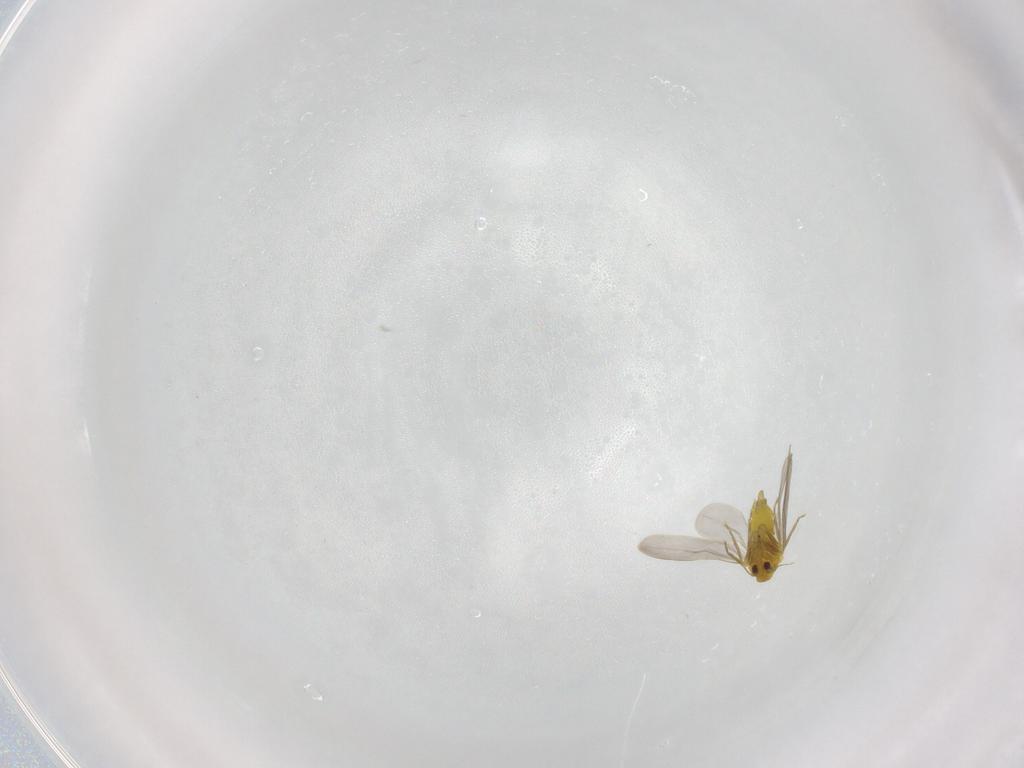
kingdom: Animalia
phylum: Arthropoda
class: Insecta
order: Hemiptera
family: Aleyrodidae
